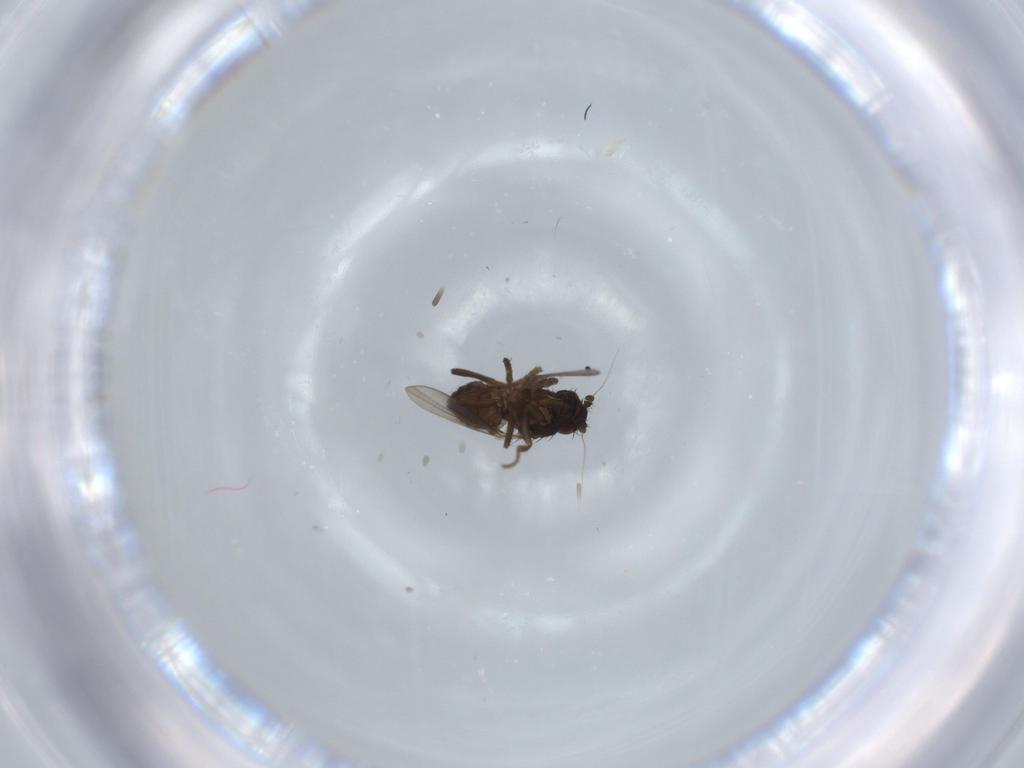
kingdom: Animalia
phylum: Arthropoda
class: Insecta
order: Diptera
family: Sphaeroceridae
